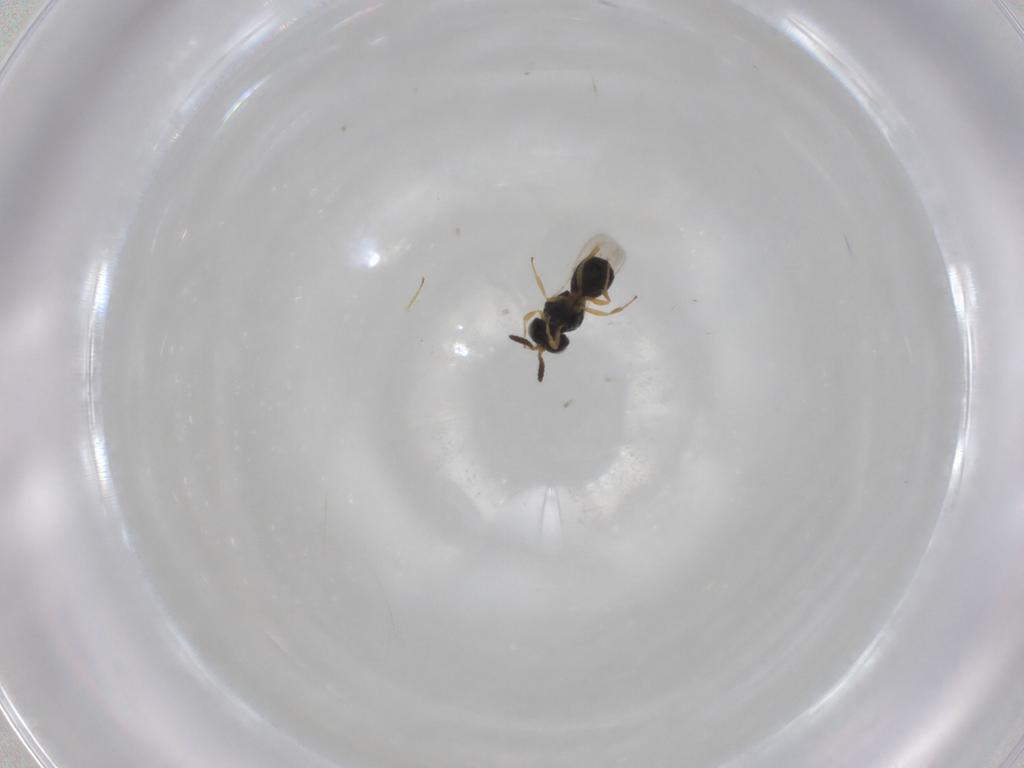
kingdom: Animalia
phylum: Arthropoda
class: Insecta
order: Hymenoptera
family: Scelionidae
